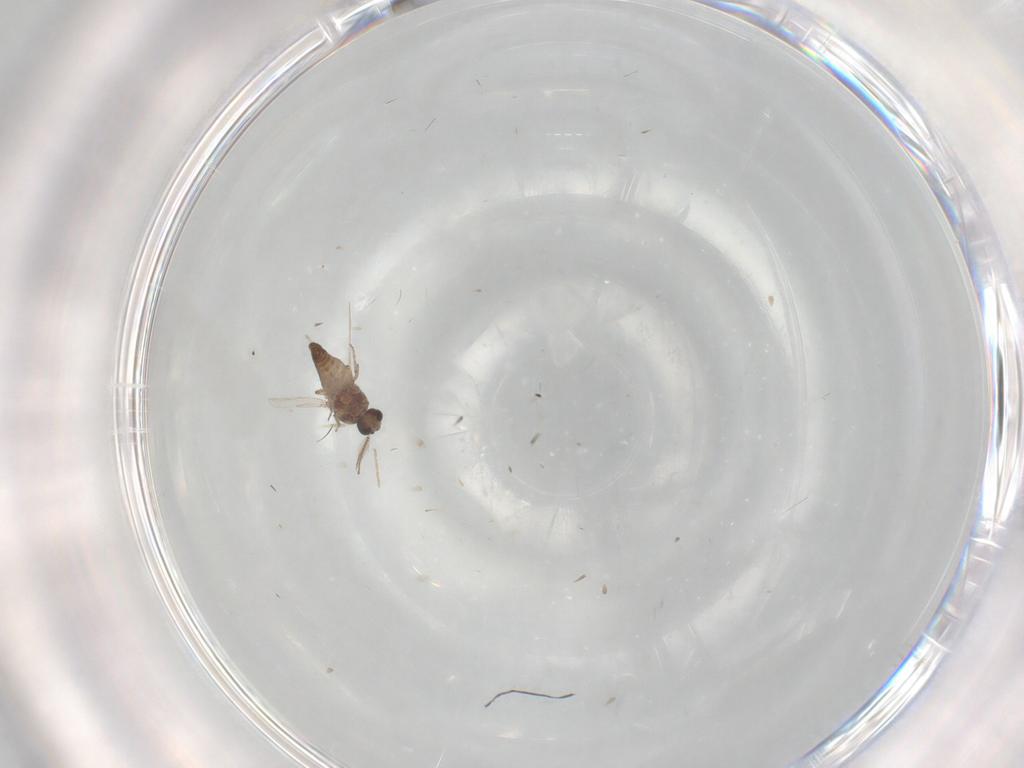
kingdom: Animalia
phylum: Arthropoda
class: Insecta
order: Diptera
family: Ceratopogonidae
